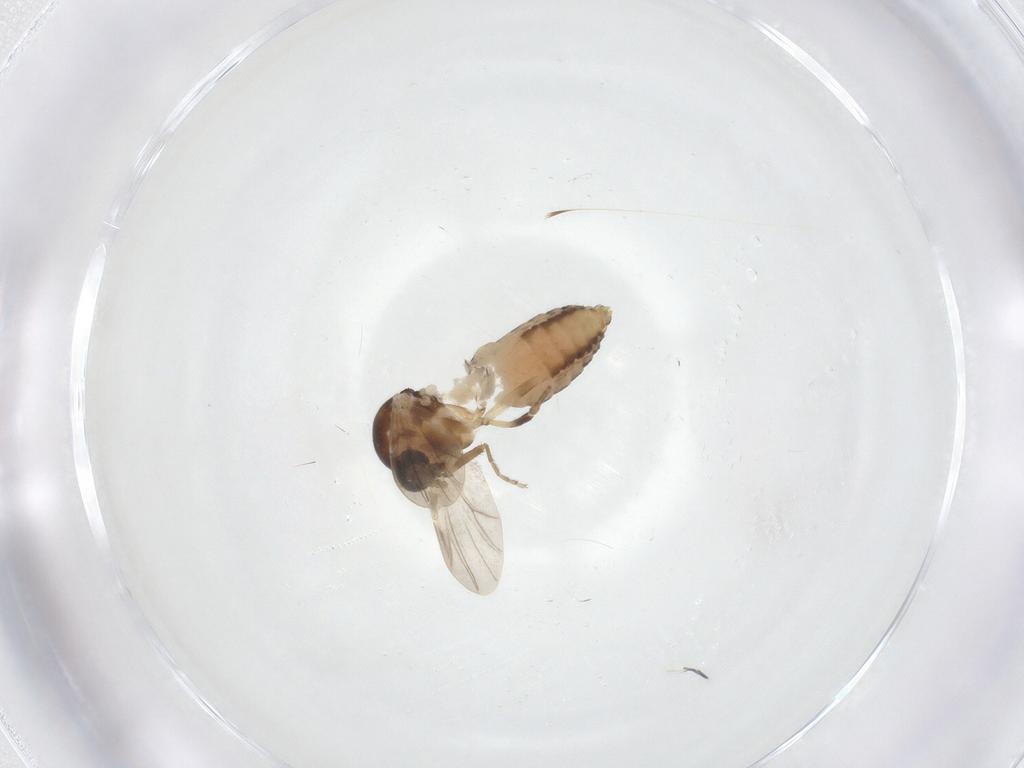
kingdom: Animalia
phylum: Arthropoda
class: Insecta
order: Diptera
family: Ceratopogonidae
